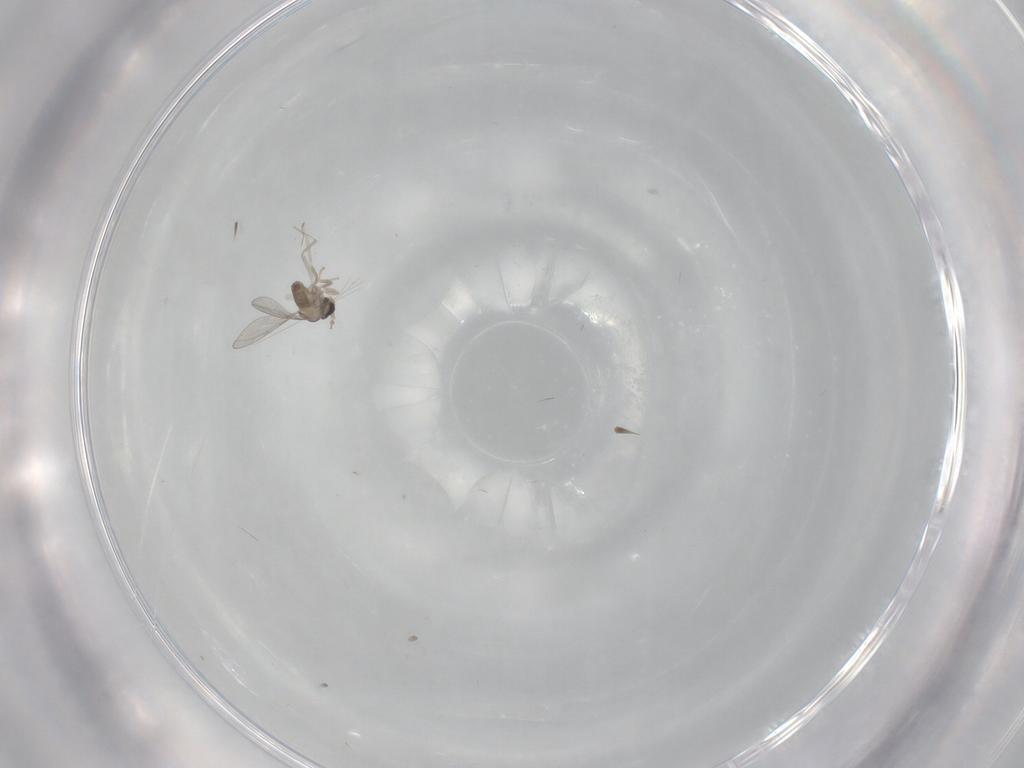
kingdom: Animalia
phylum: Arthropoda
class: Insecta
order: Diptera
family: Cecidomyiidae
